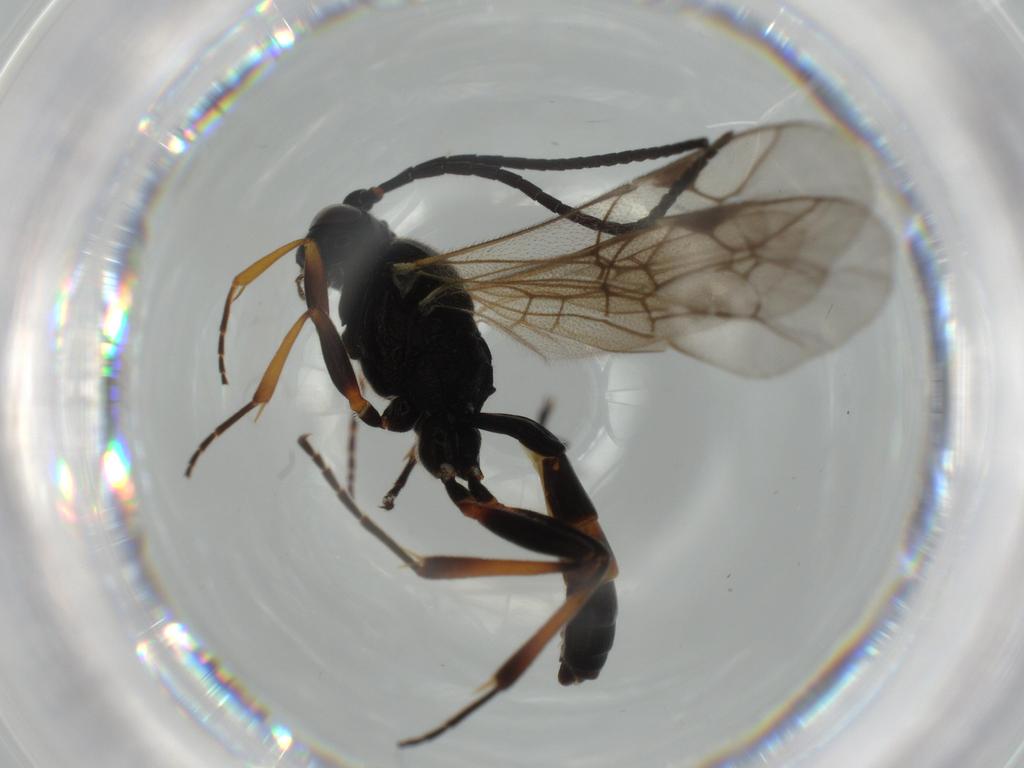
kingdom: Animalia
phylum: Arthropoda
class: Insecta
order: Hymenoptera
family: Ichneumonidae
